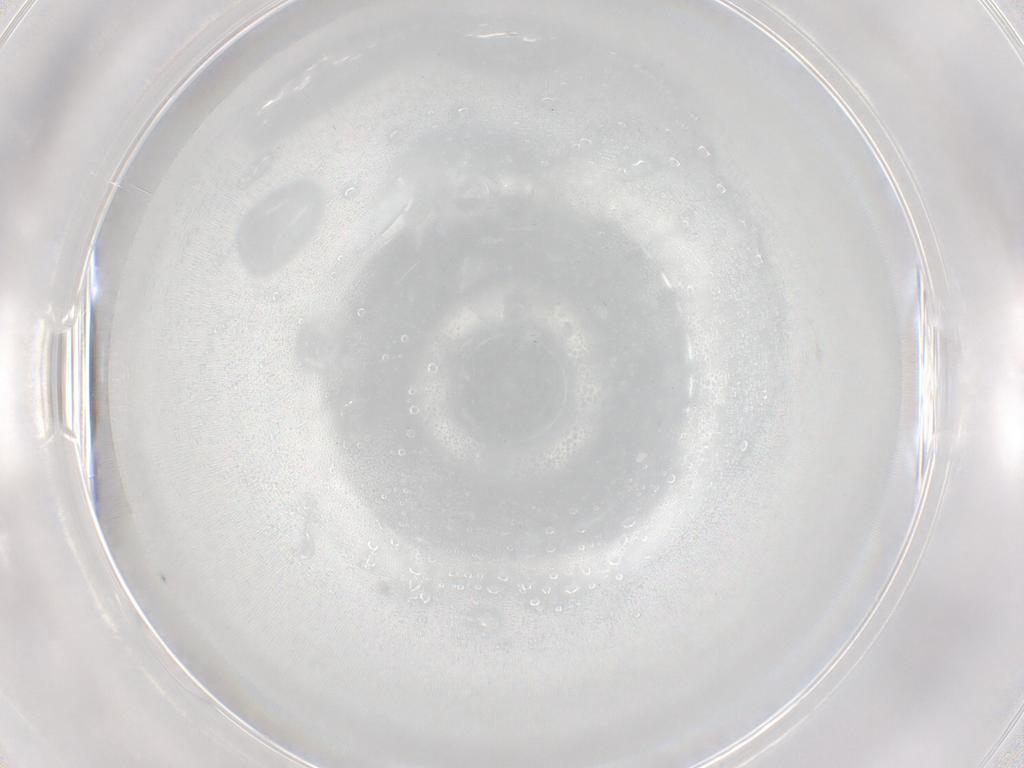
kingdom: Animalia
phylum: Arthropoda
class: Insecta
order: Diptera
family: Chironomidae
